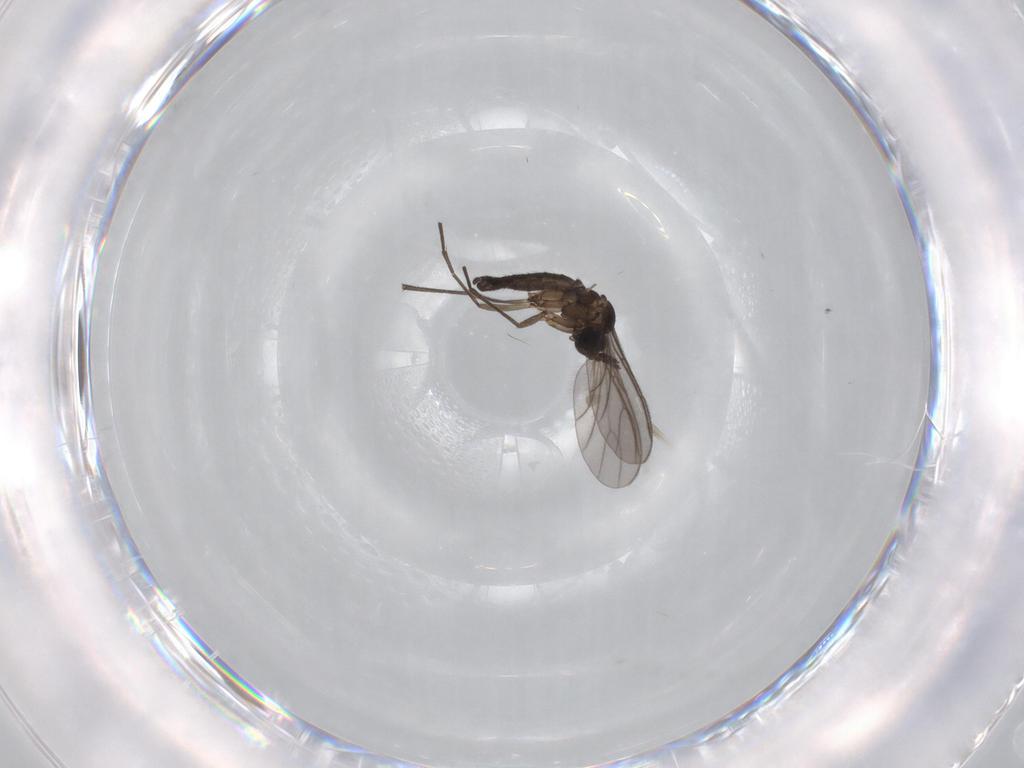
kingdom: Animalia
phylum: Arthropoda
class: Insecta
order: Diptera
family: Sciaridae
